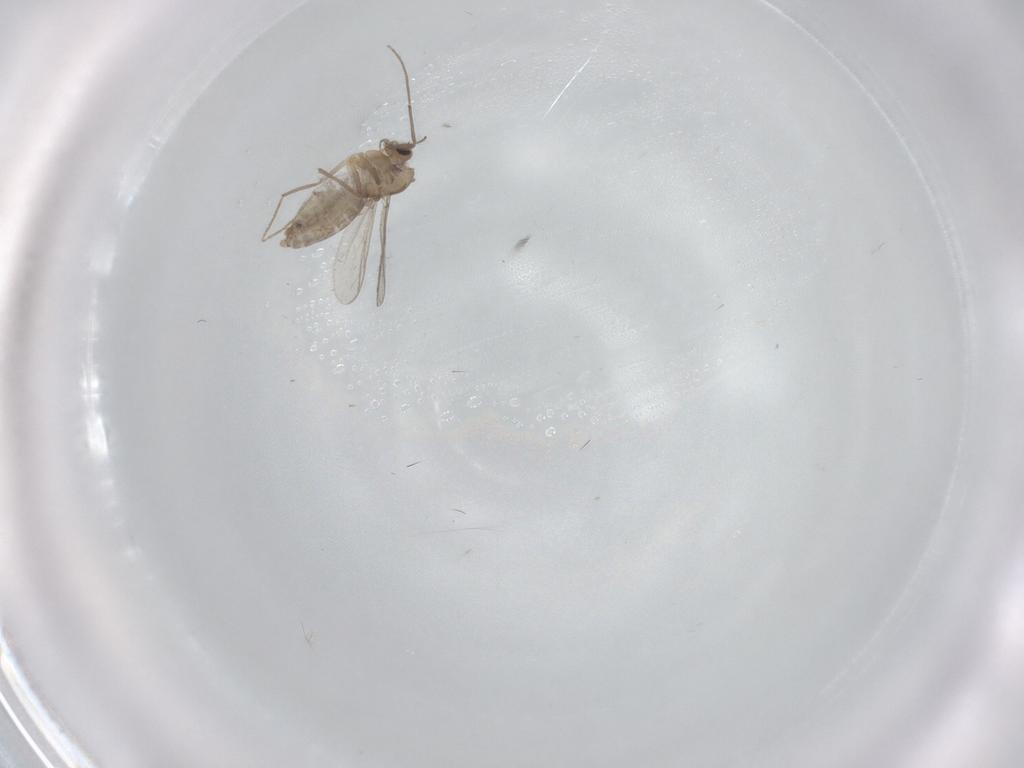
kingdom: Animalia
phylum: Arthropoda
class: Insecta
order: Diptera
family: Chironomidae
